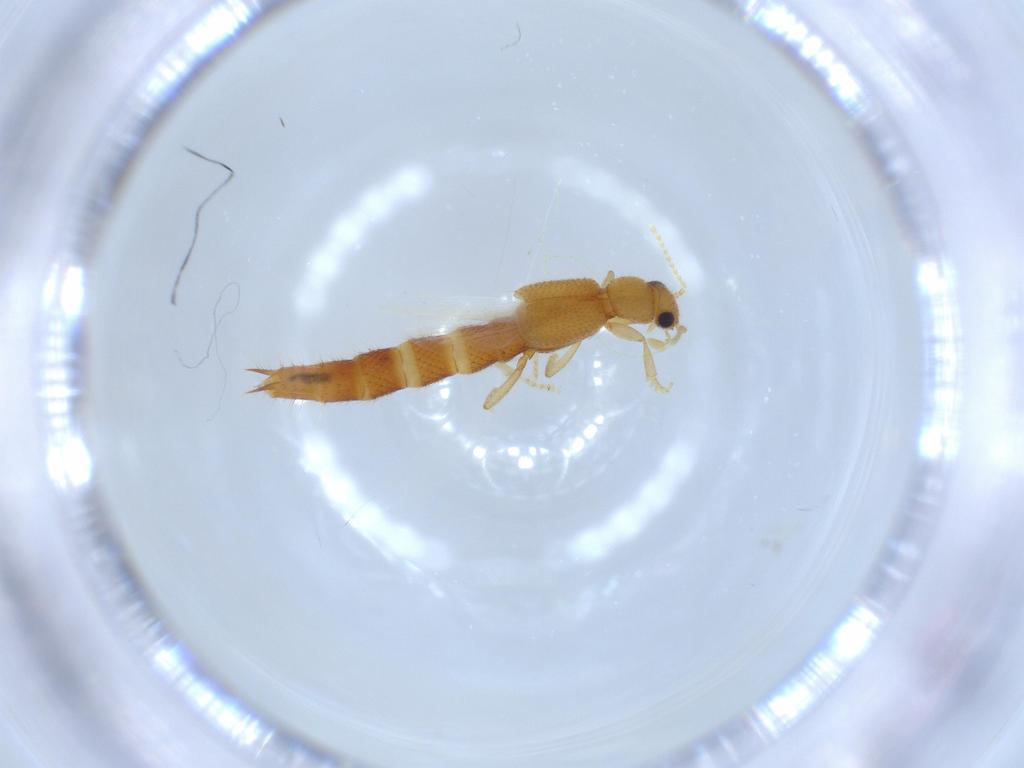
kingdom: Animalia
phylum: Arthropoda
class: Insecta
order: Coleoptera
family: Staphylinidae
